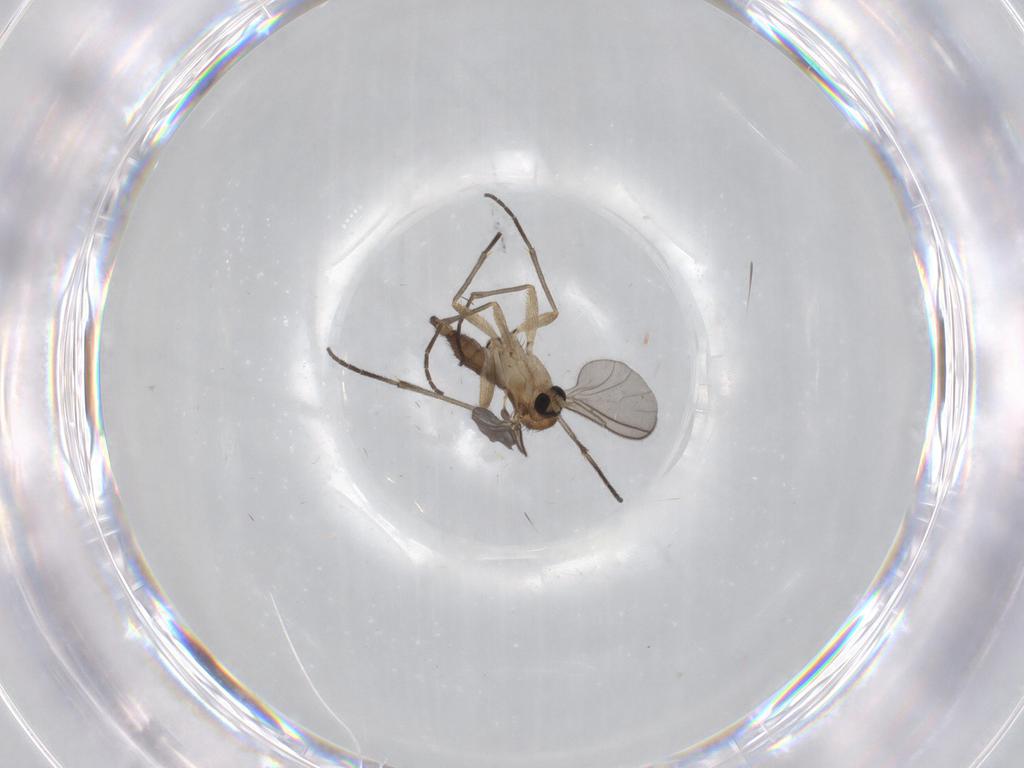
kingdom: Animalia
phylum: Arthropoda
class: Insecta
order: Diptera
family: Sciaridae
